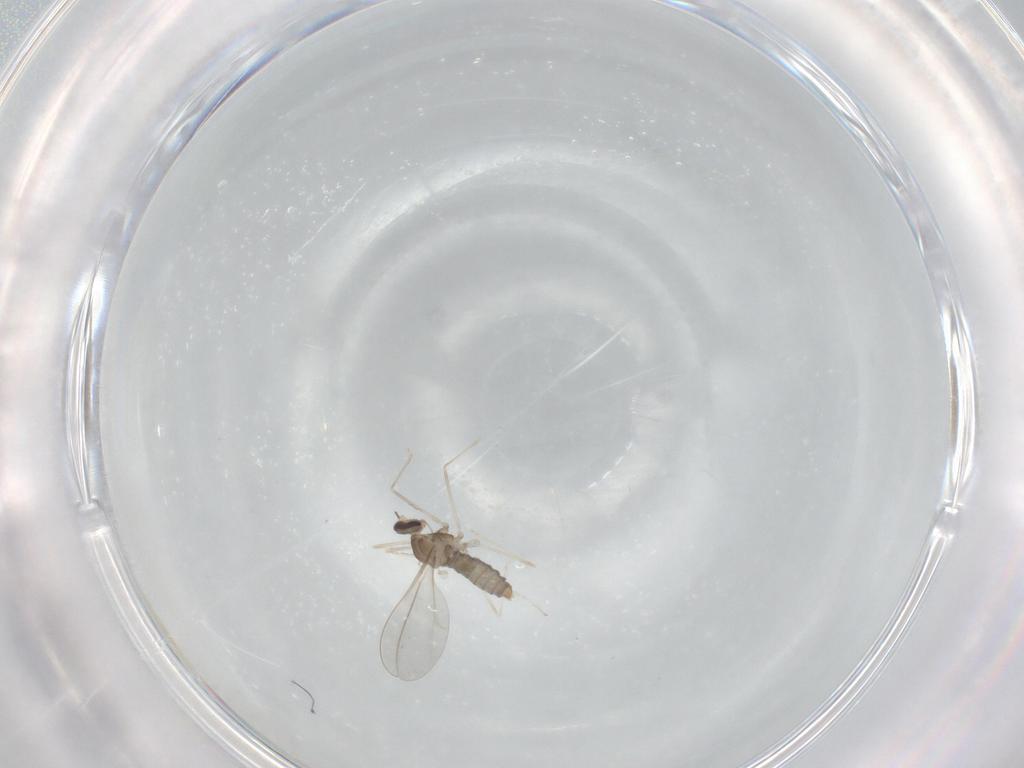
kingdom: Animalia
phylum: Arthropoda
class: Insecta
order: Diptera
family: Cecidomyiidae
